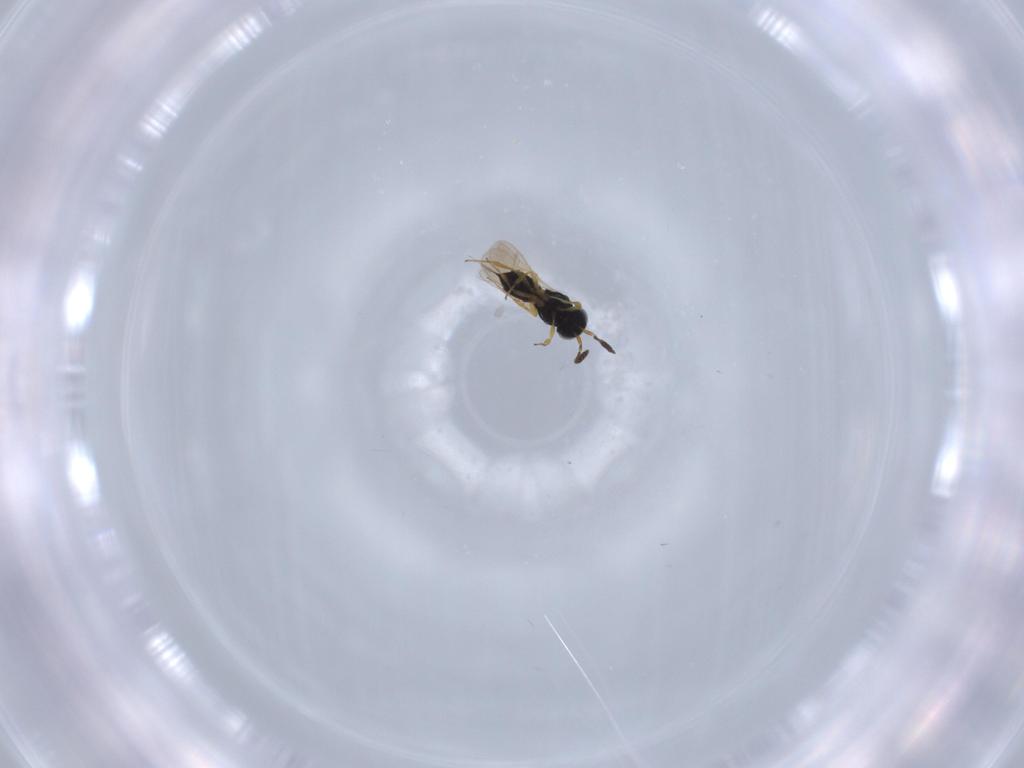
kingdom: Animalia
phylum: Arthropoda
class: Insecta
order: Hymenoptera
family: Scelionidae
